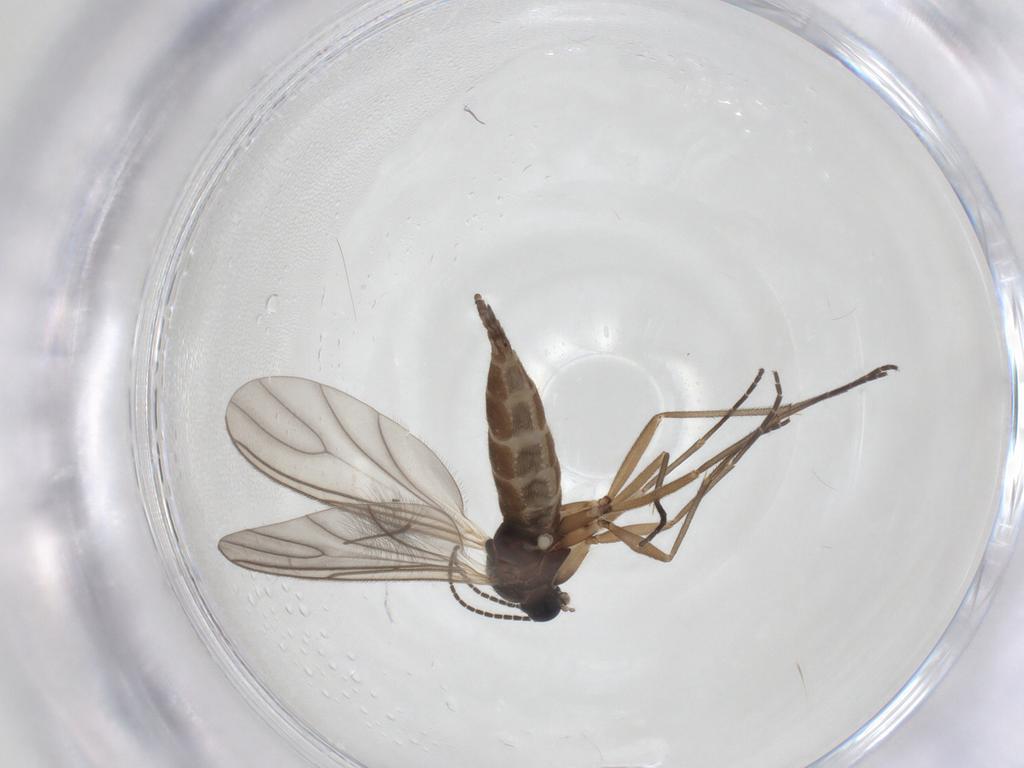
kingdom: Animalia
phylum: Arthropoda
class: Insecta
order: Diptera
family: Sciaridae
